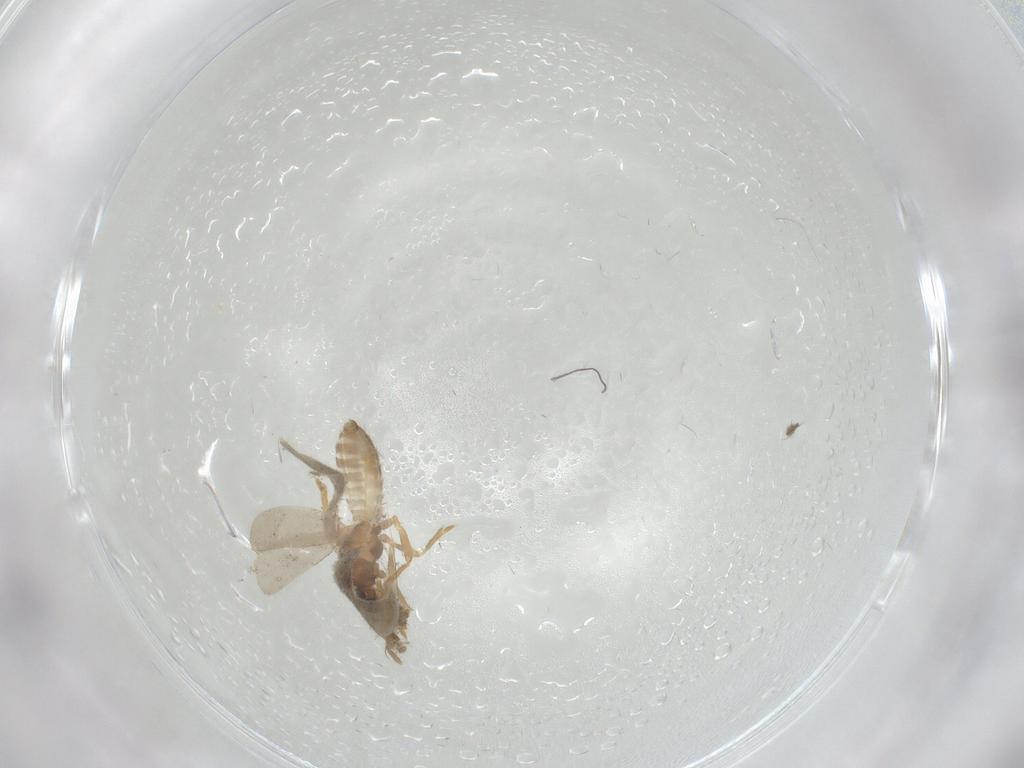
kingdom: Animalia
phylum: Arthropoda
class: Insecta
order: Hemiptera
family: Enicocephalidae
